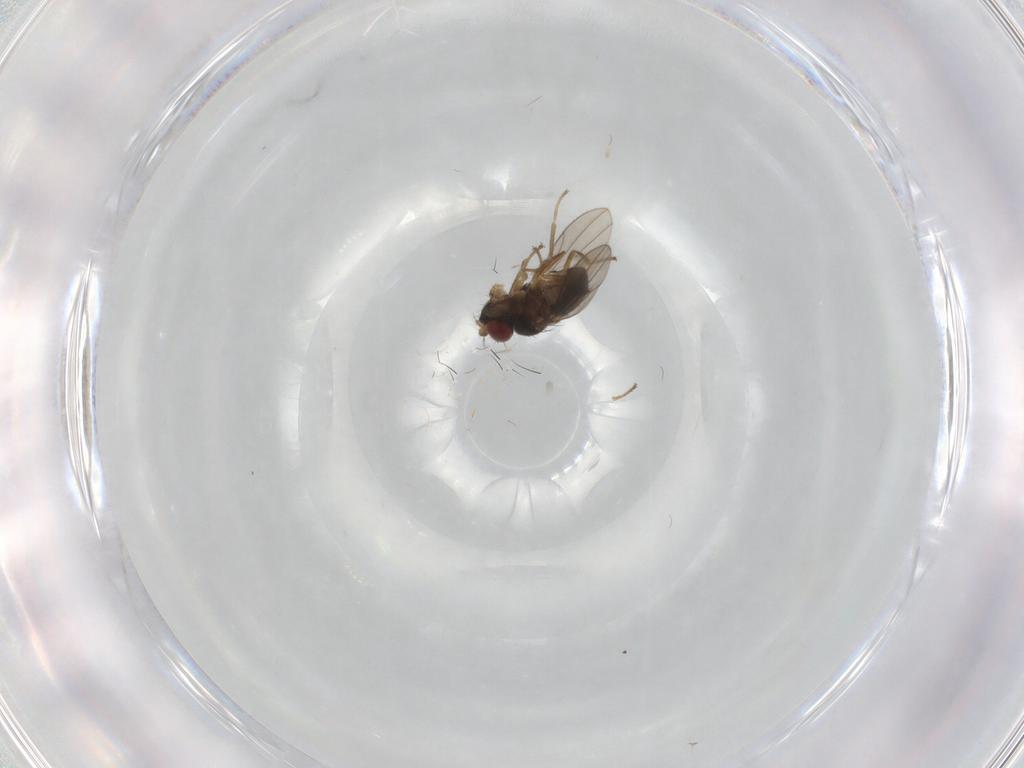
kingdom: Animalia
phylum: Arthropoda
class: Insecta
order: Diptera
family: Ephydridae
